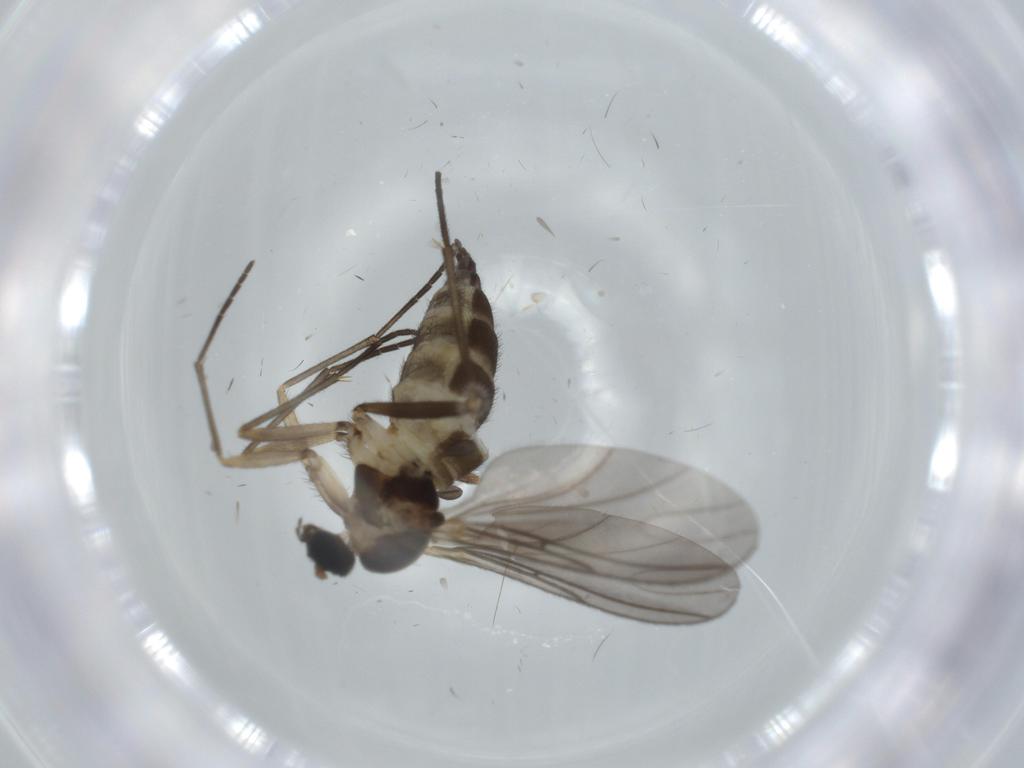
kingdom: Animalia
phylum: Arthropoda
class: Insecta
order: Diptera
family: Sciaridae
